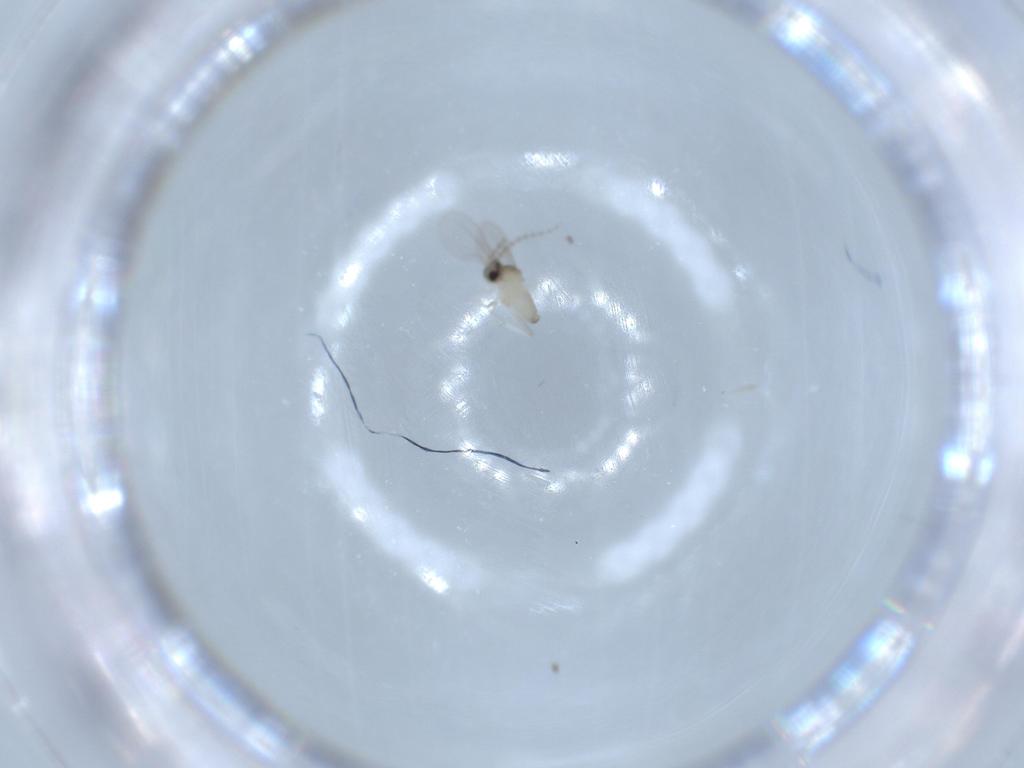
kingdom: Animalia
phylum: Arthropoda
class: Insecta
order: Diptera
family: Cecidomyiidae
